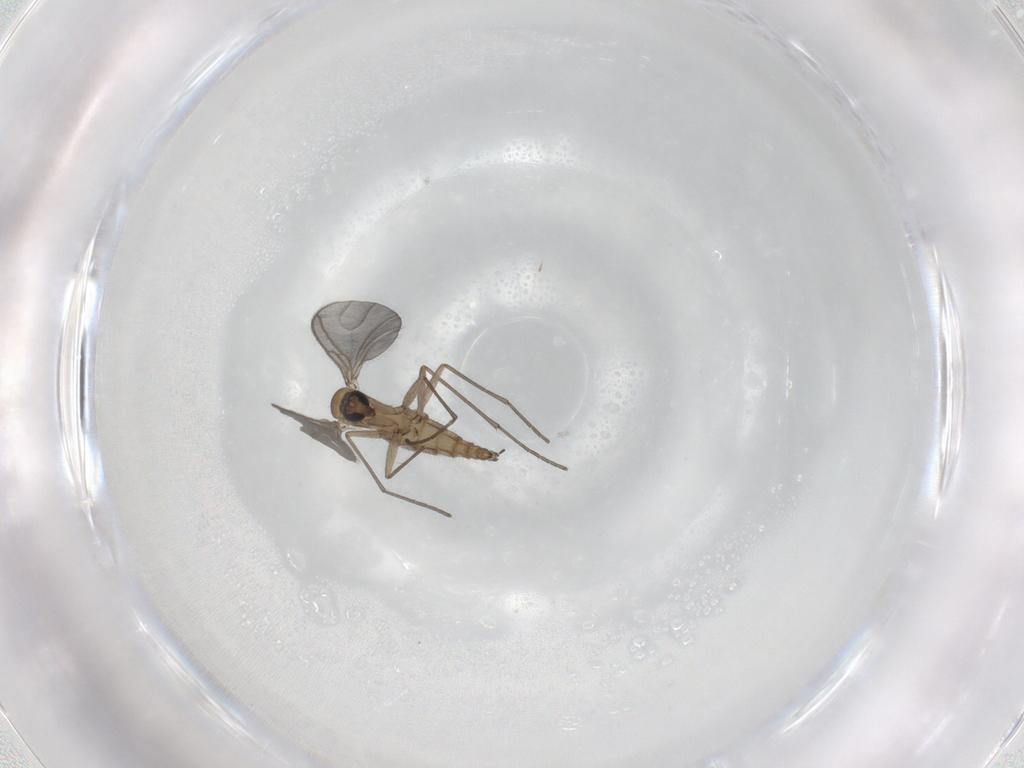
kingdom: Animalia
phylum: Arthropoda
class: Insecta
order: Diptera
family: Sciaridae
